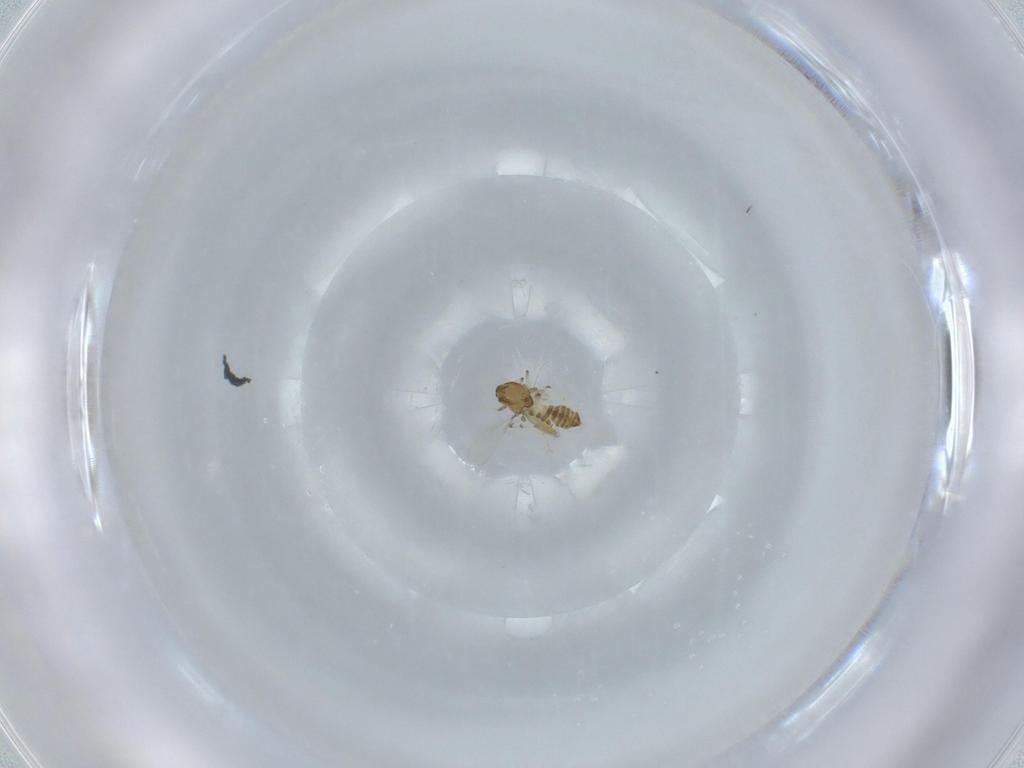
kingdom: Animalia
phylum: Arthropoda
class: Insecta
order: Diptera
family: Chironomidae
